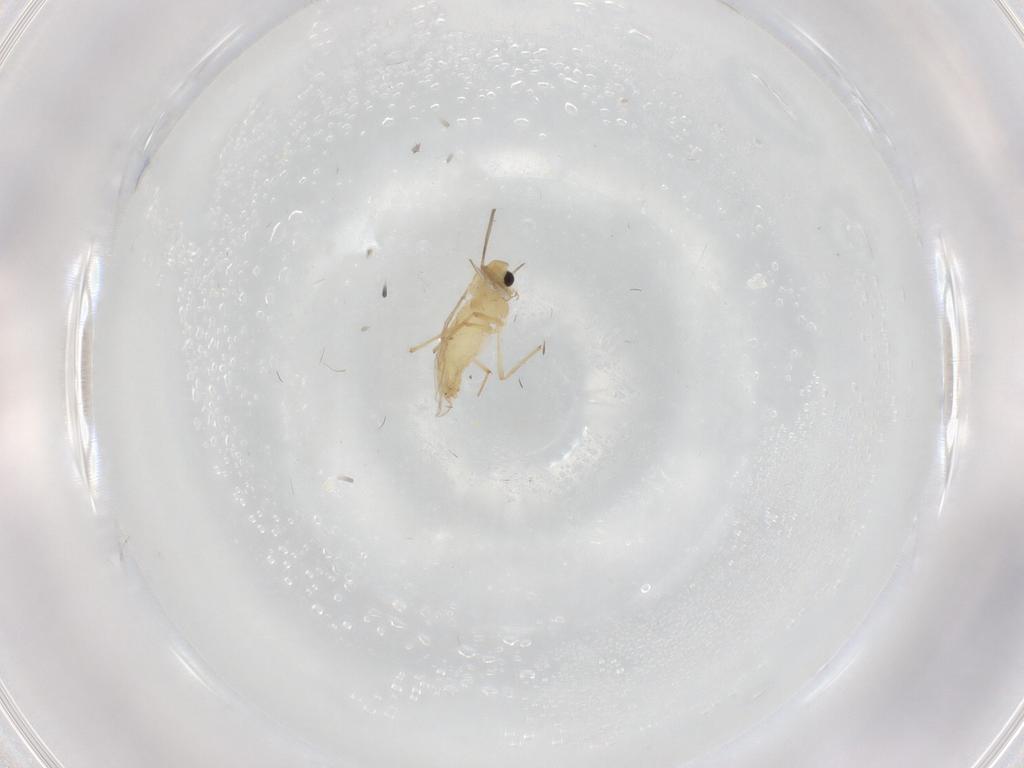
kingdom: Animalia
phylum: Arthropoda
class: Insecta
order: Diptera
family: Chironomidae
